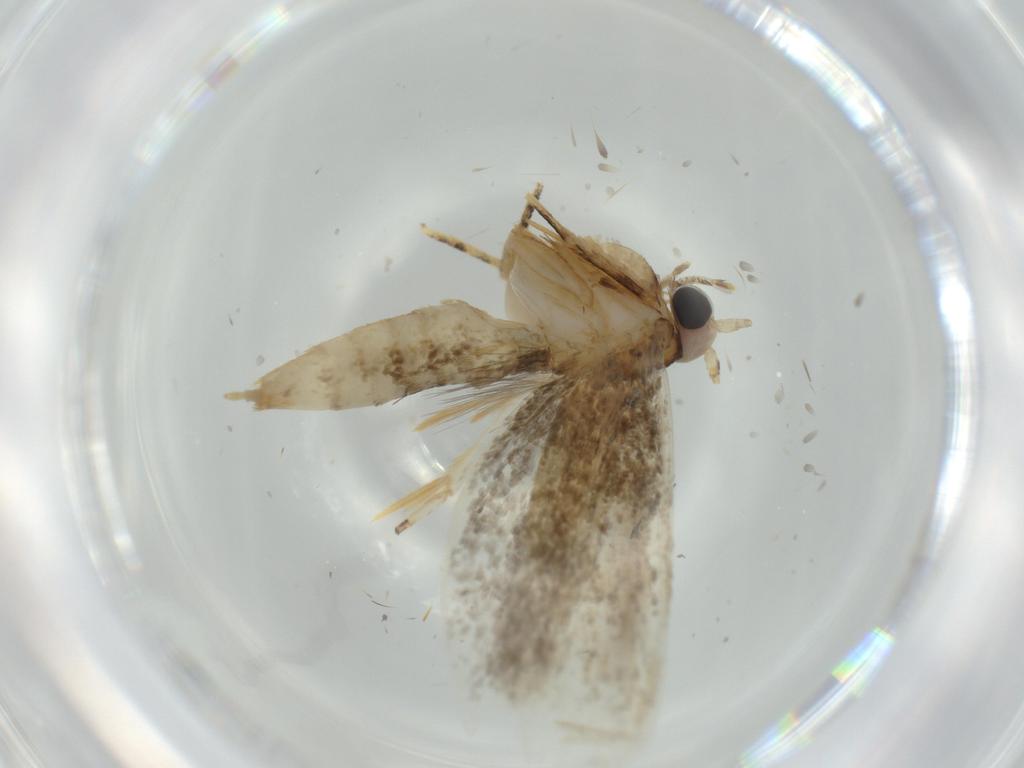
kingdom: Animalia
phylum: Arthropoda
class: Insecta
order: Lepidoptera
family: Nepticulidae
